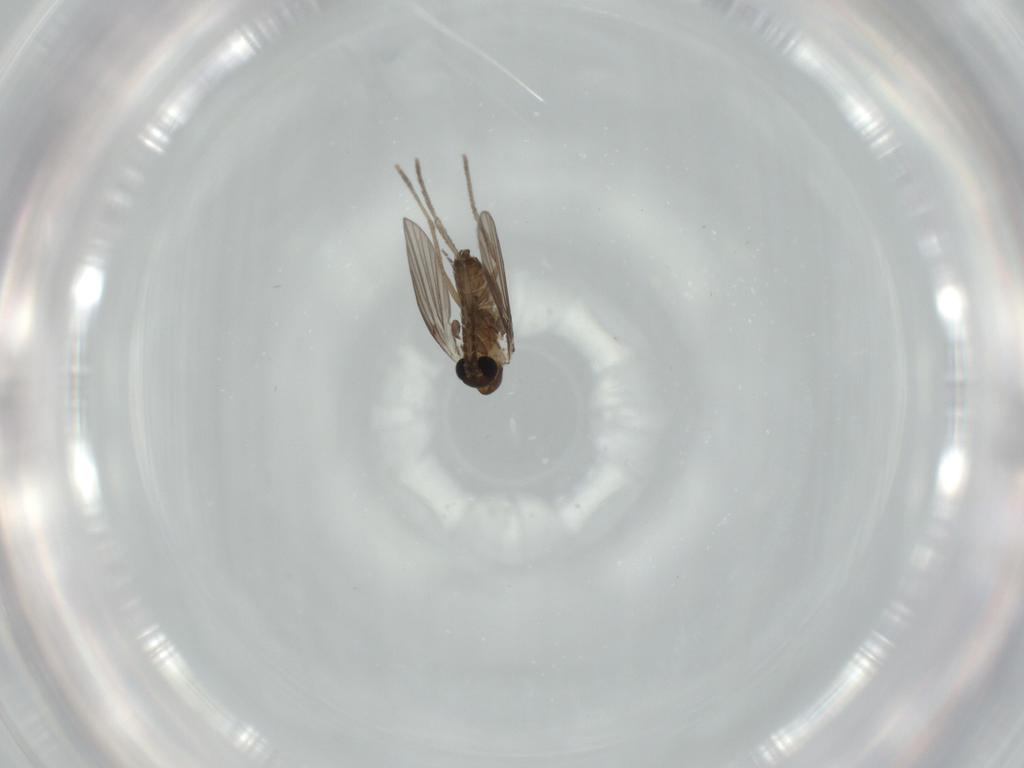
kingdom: Animalia
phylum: Arthropoda
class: Insecta
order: Diptera
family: Psychodidae
